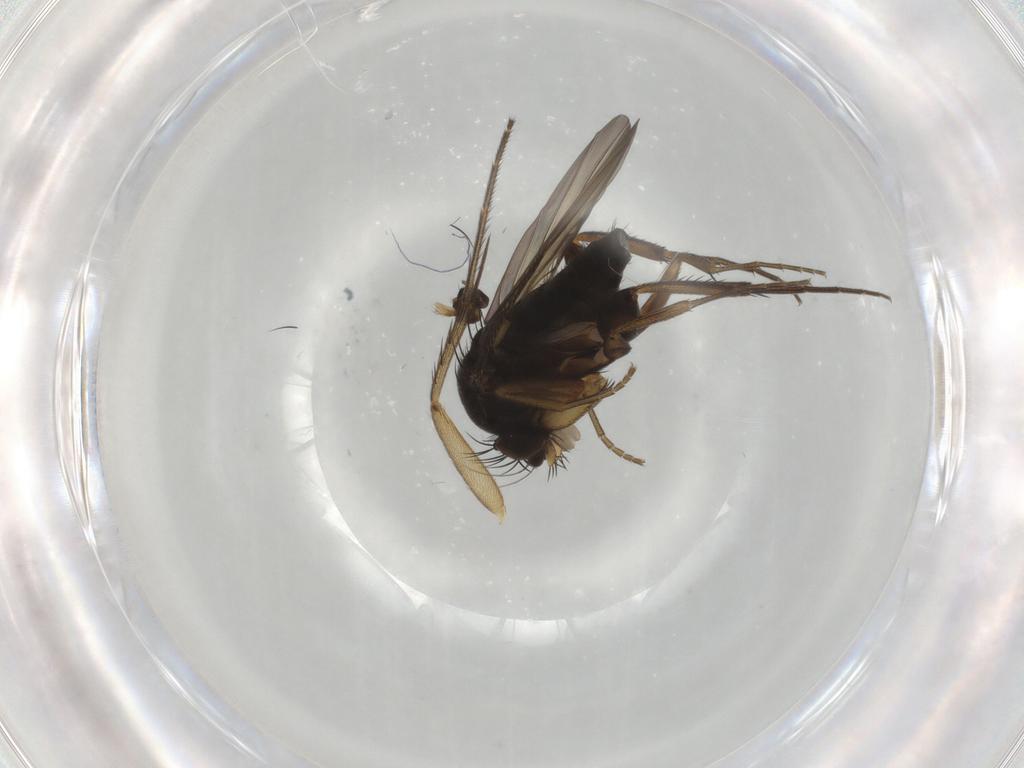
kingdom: Animalia
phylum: Arthropoda
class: Insecta
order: Diptera
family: Phoridae
